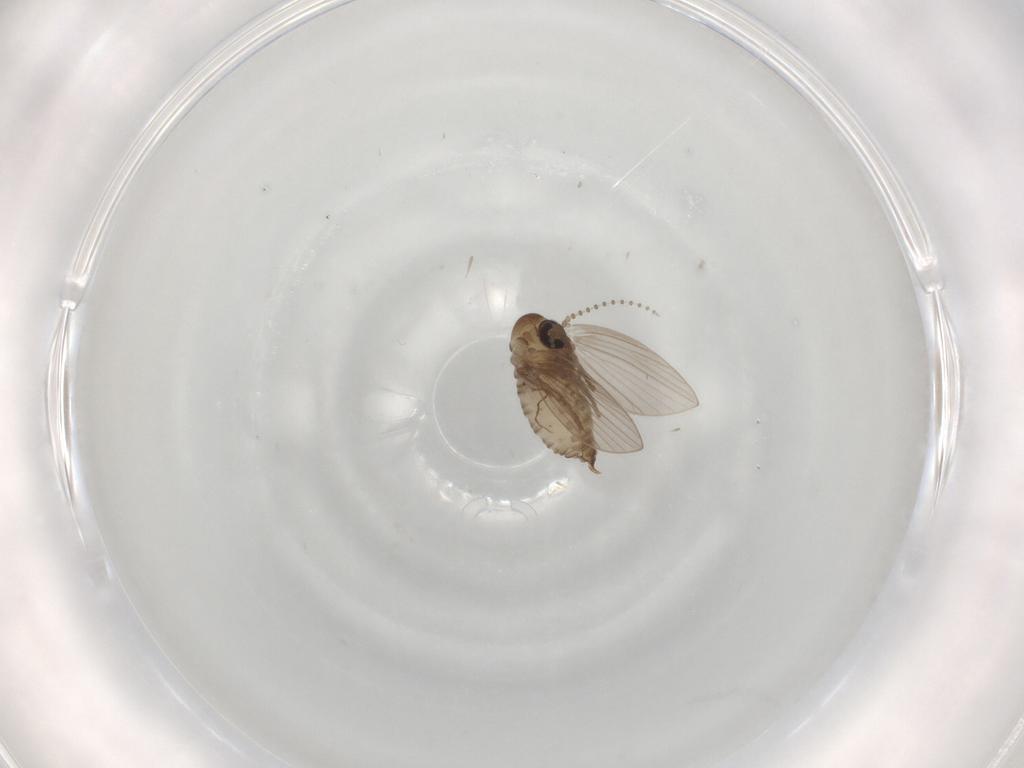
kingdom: Animalia
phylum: Arthropoda
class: Insecta
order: Diptera
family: Psychodidae
